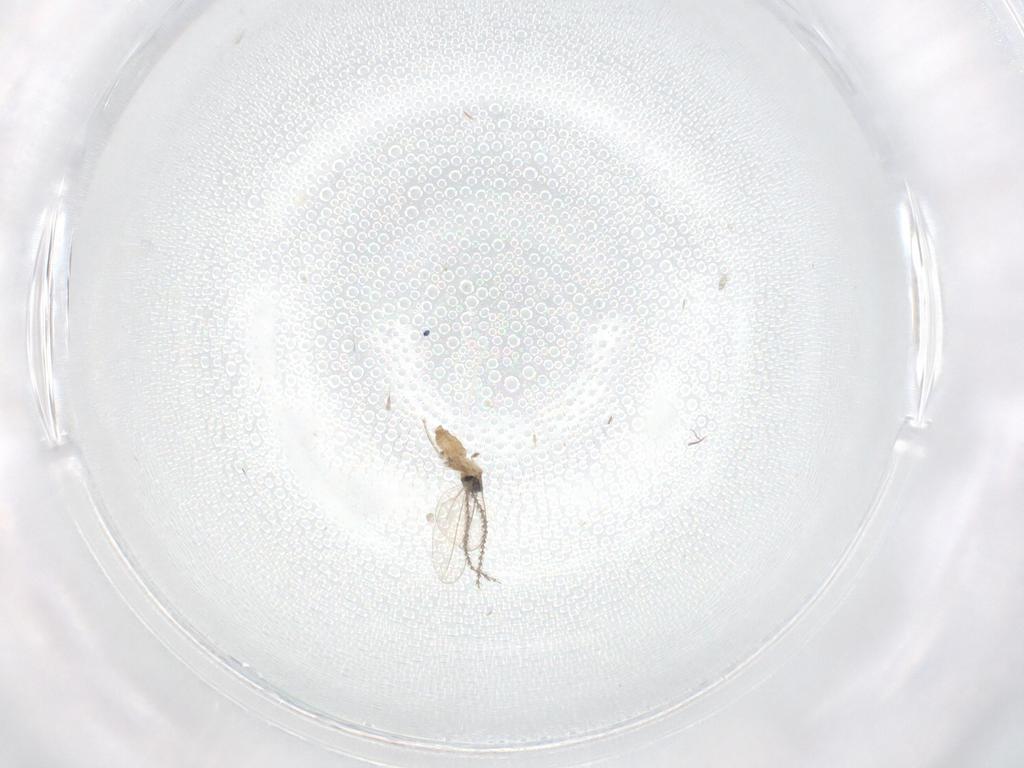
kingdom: Animalia
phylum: Arthropoda
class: Insecta
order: Diptera
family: Cecidomyiidae
